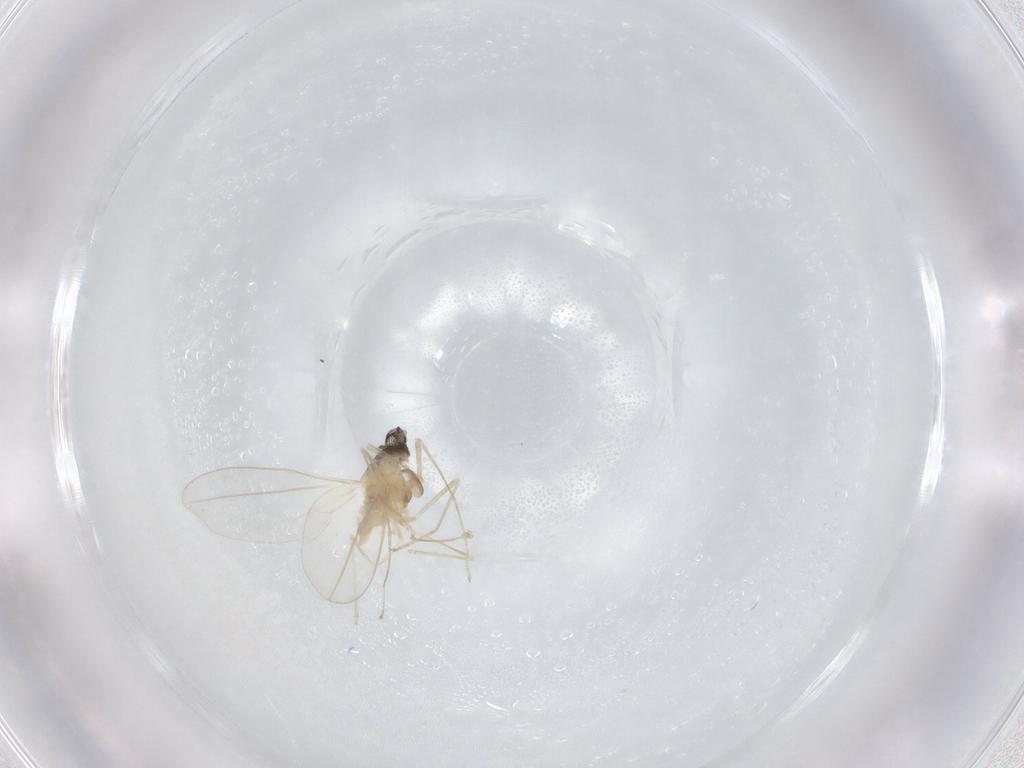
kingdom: Animalia
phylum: Arthropoda
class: Insecta
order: Diptera
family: Cecidomyiidae
